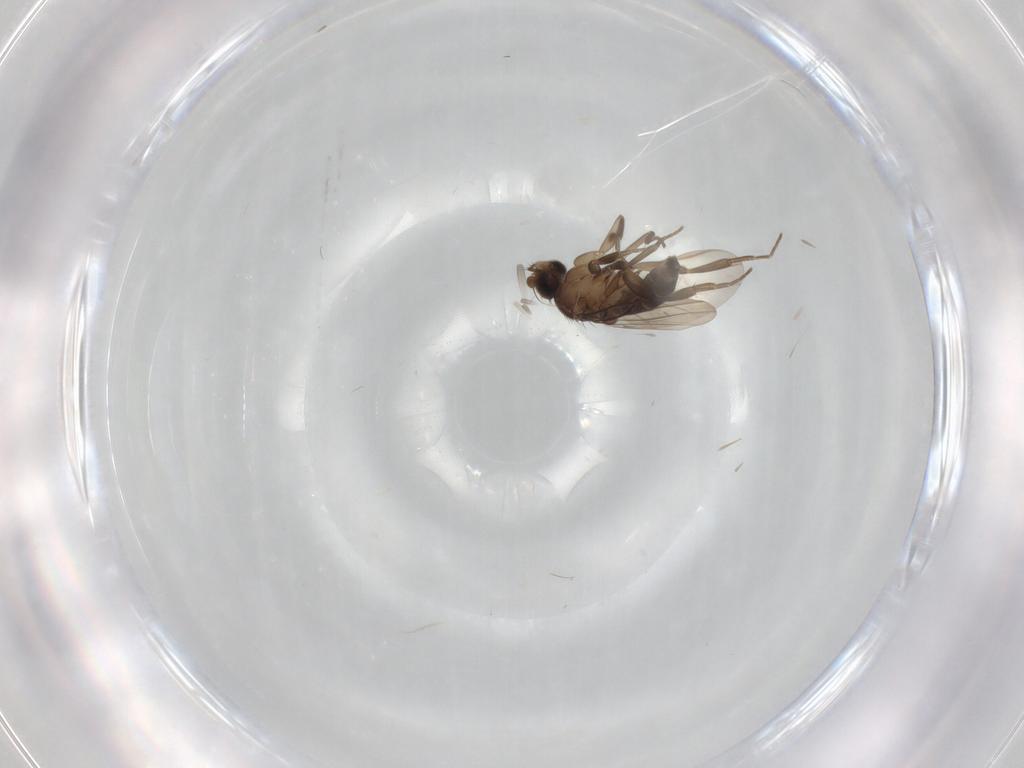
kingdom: Animalia
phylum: Arthropoda
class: Insecta
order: Diptera
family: Phoridae
